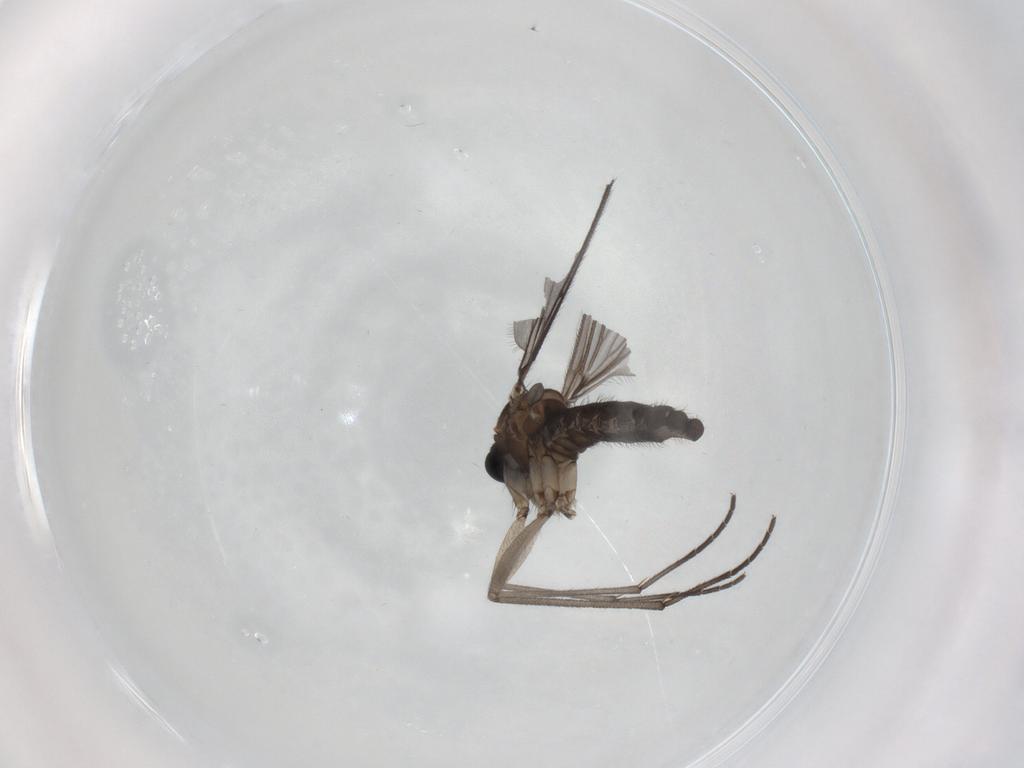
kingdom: Animalia
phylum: Arthropoda
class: Insecta
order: Diptera
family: Sciaridae
